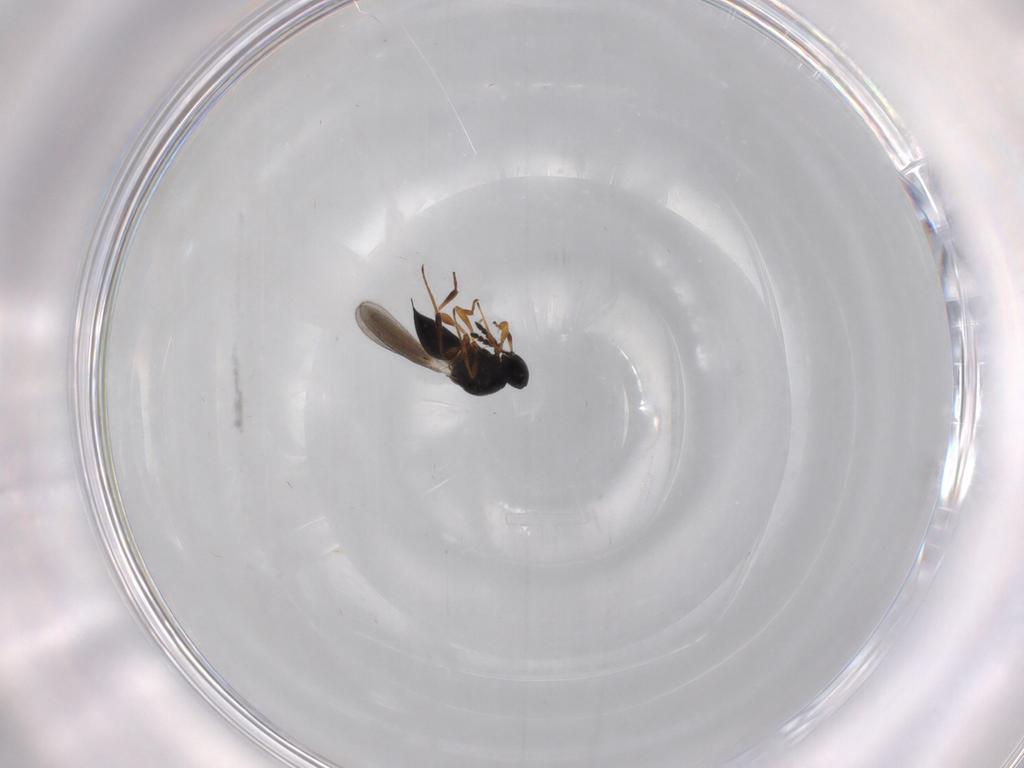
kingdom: Animalia
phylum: Arthropoda
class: Insecta
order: Hymenoptera
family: Platygastridae
